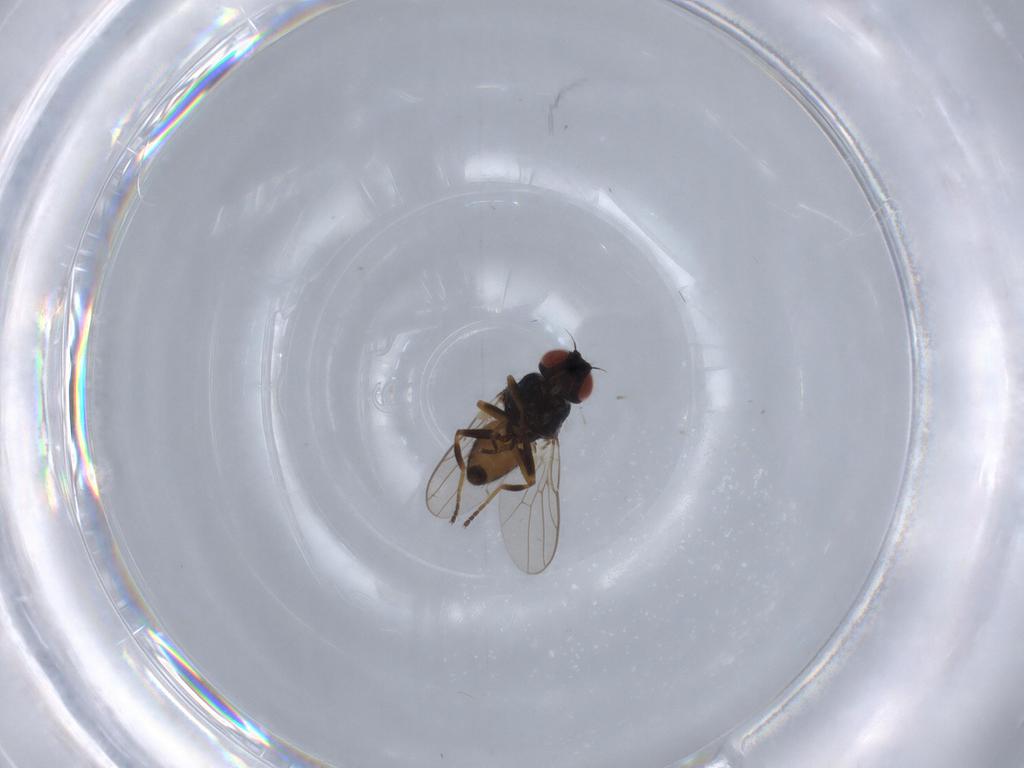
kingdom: Animalia
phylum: Arthropoda
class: Insecta
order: Diptera
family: Chloropidae
